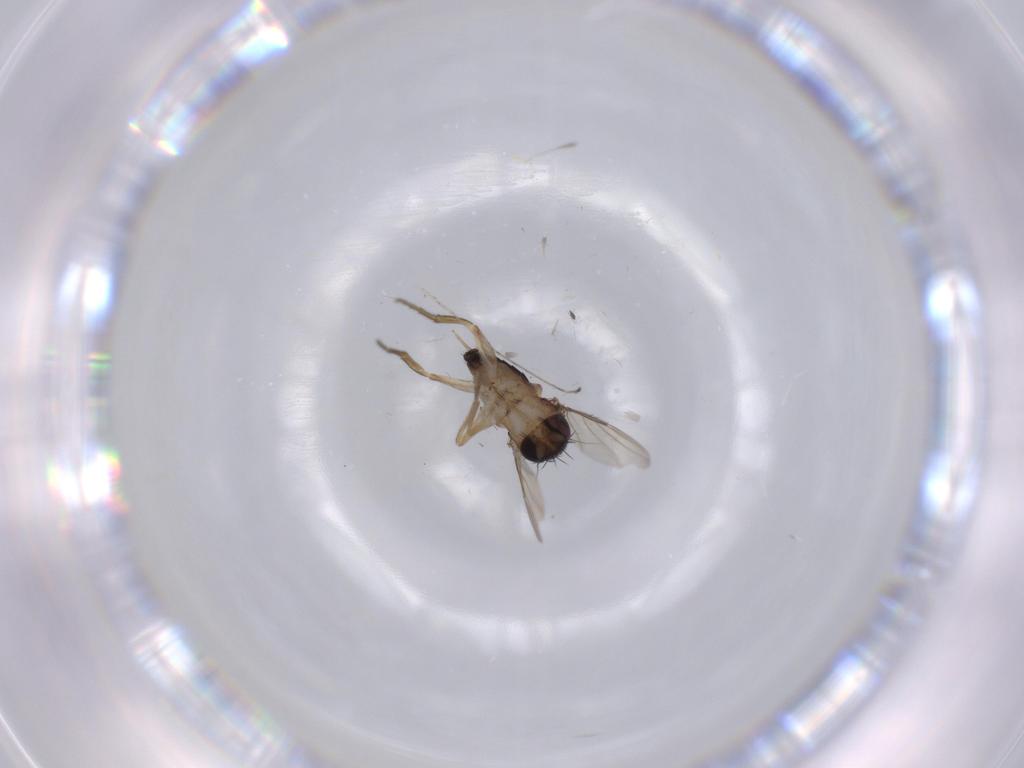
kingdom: Animalia
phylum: Arthropoda
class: Insecta
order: Diptera
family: Phoridae
